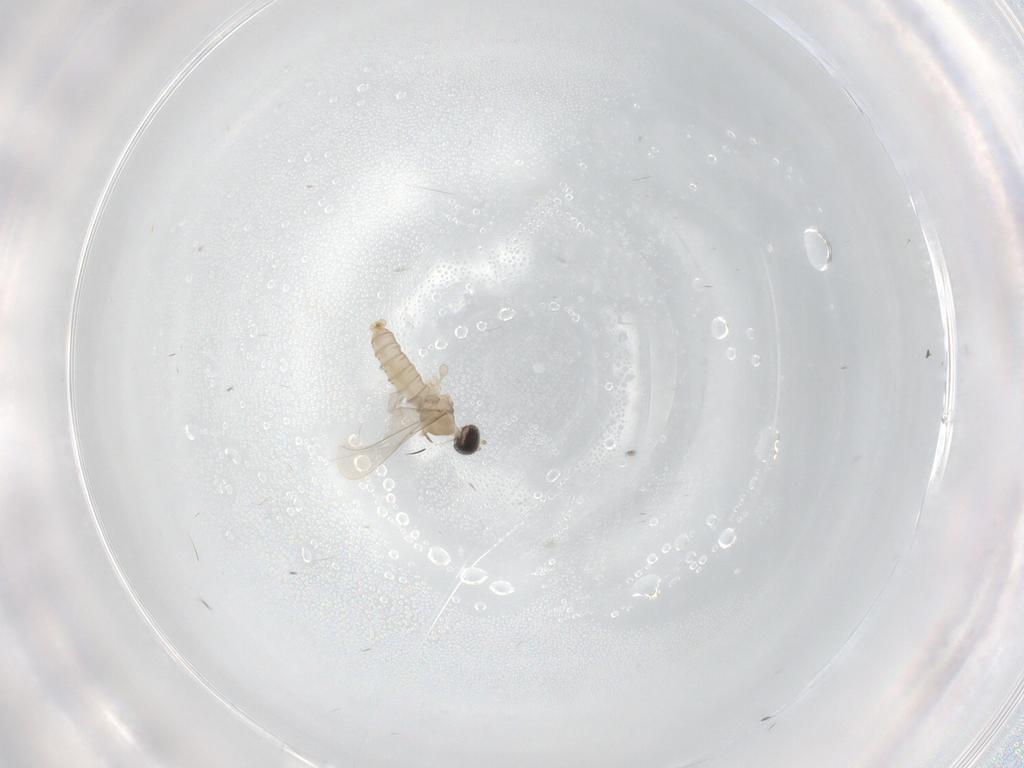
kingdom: Animalia
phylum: Arthropoda
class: Insecta
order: Diptera
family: Cecidomyiidae
